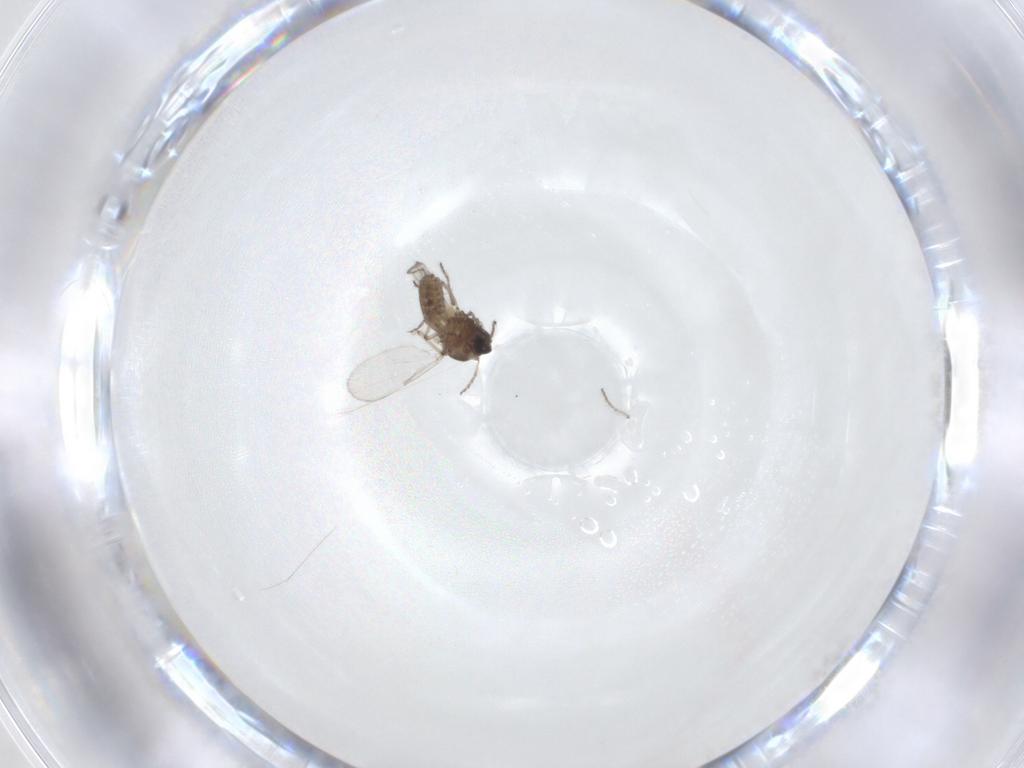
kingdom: Animalia
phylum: Arthropoda
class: Insecta
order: Diptera
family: Ceratopogonidae
